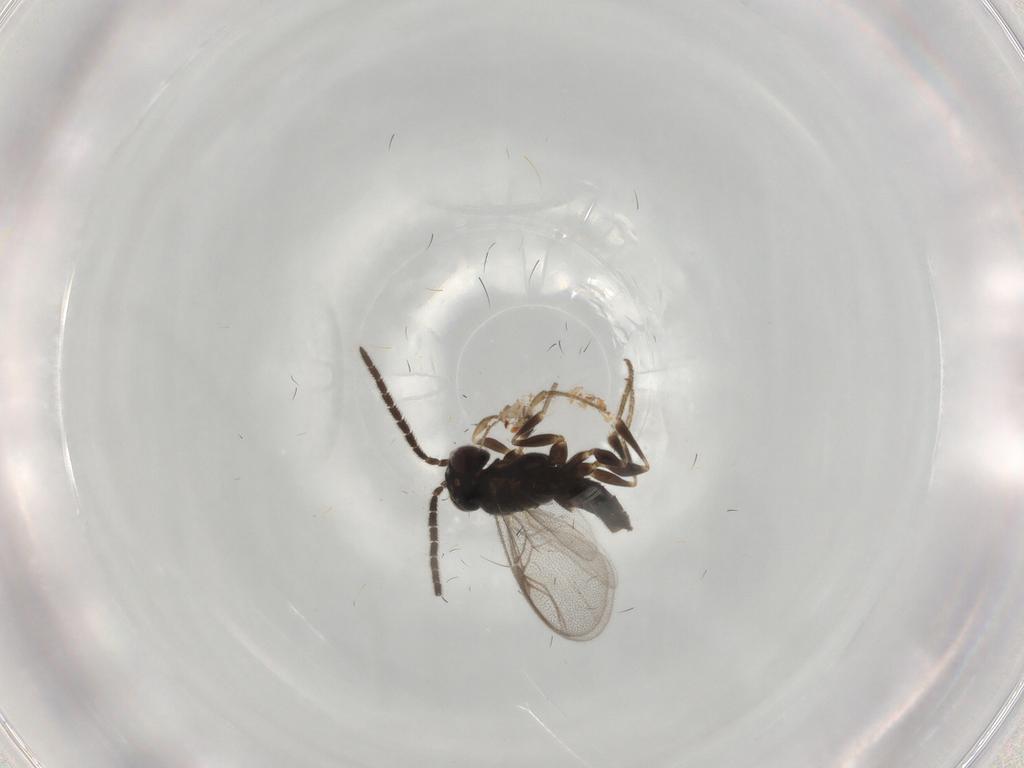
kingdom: Animalia
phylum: Arthropoda
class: Insecta
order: Hymenoptera
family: Dryinidae
